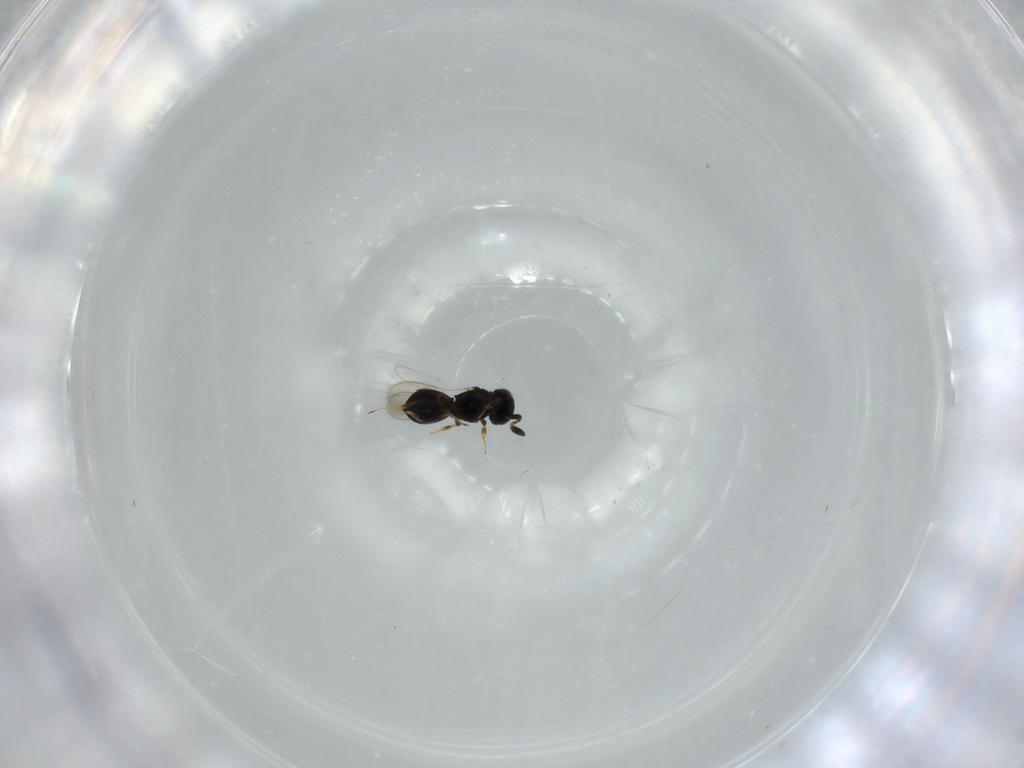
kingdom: Animalia
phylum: Arthropoda
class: Insecta
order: Hymenoptera
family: Scelionidae
